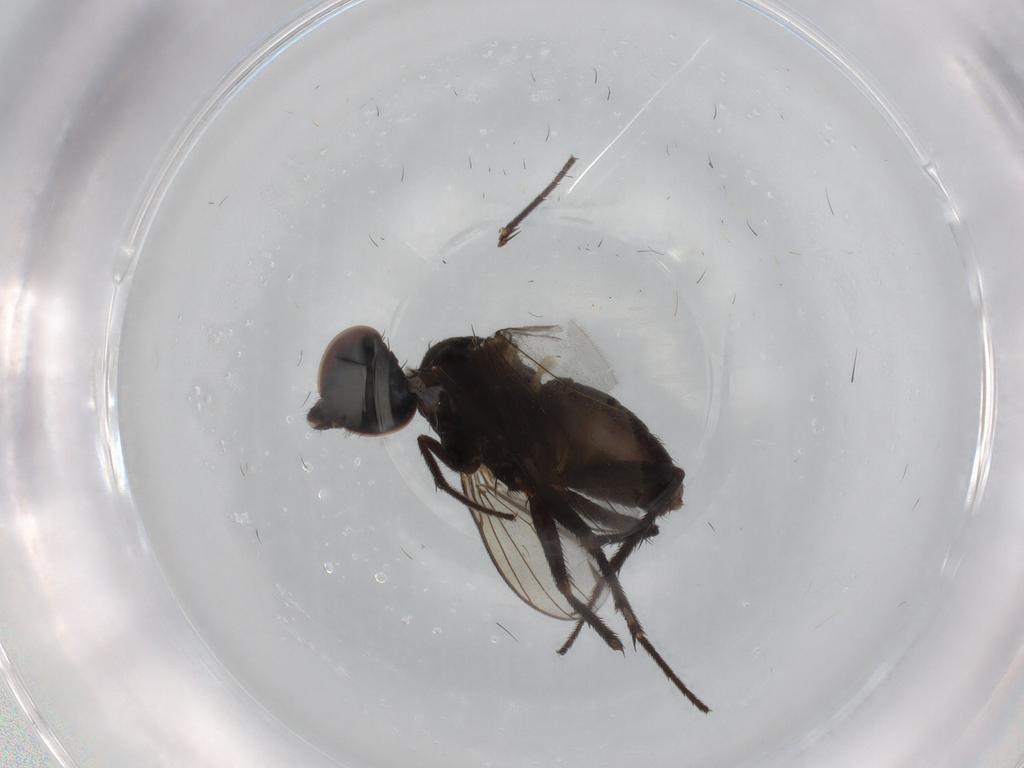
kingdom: Animalia
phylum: Arthropoda
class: Insecta
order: Diptera
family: Dolichopodidae
